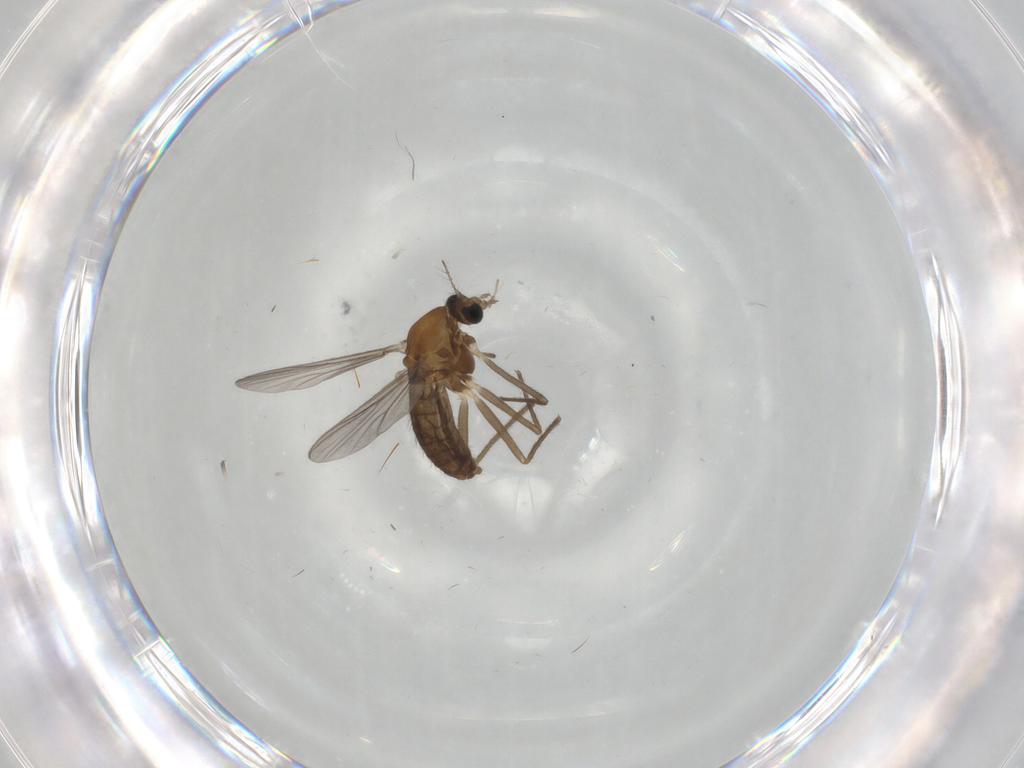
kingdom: Animalia
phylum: Arthropoda
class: Insecta
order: Diptera
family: Chironomidae
